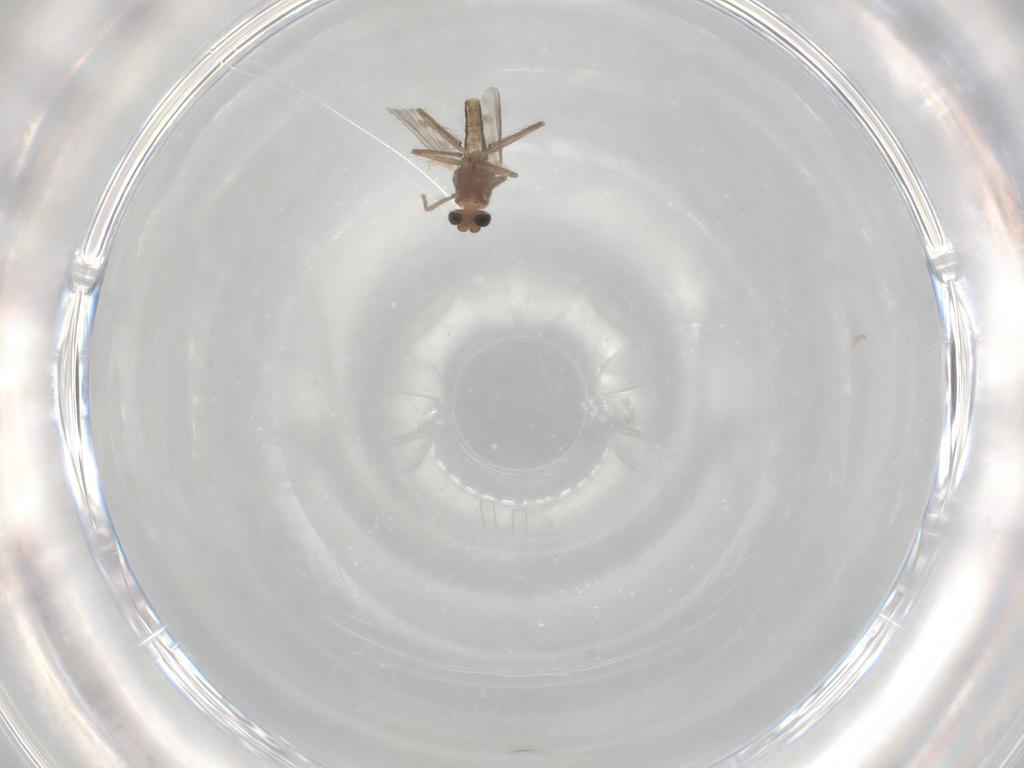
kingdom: Animalia
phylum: Arthropoda
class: Insecta
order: Diptera
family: Chironomidae
